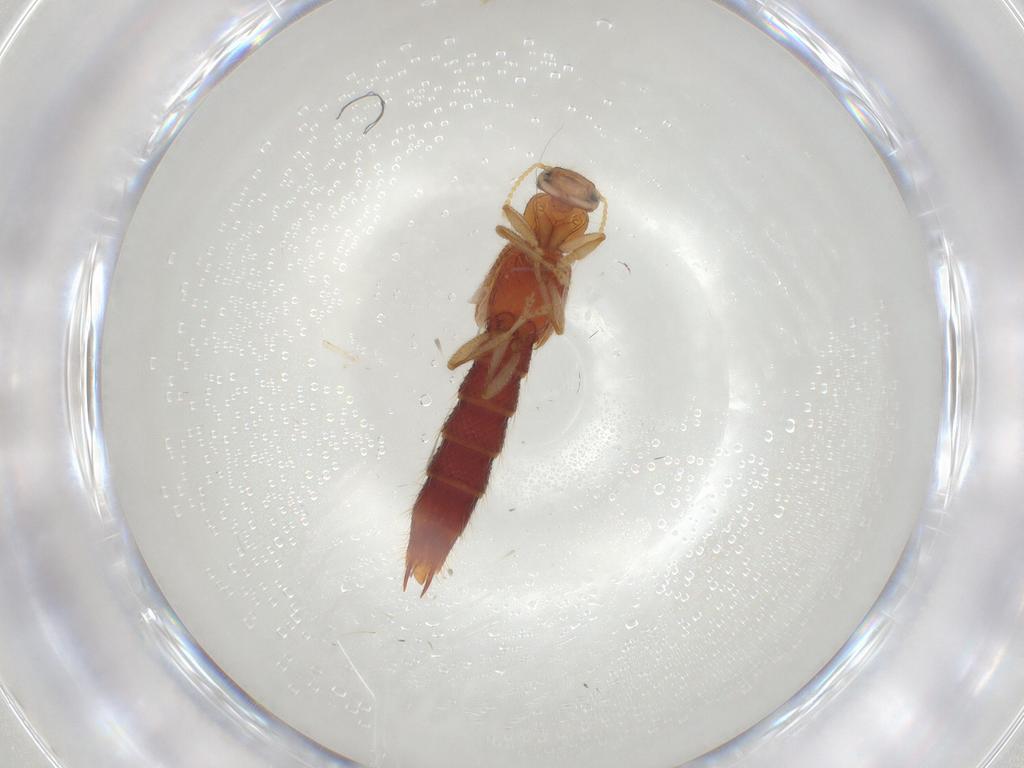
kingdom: Animalia
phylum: Arthropoda
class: Insecta
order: Coleoptera
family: Staphylinidae
